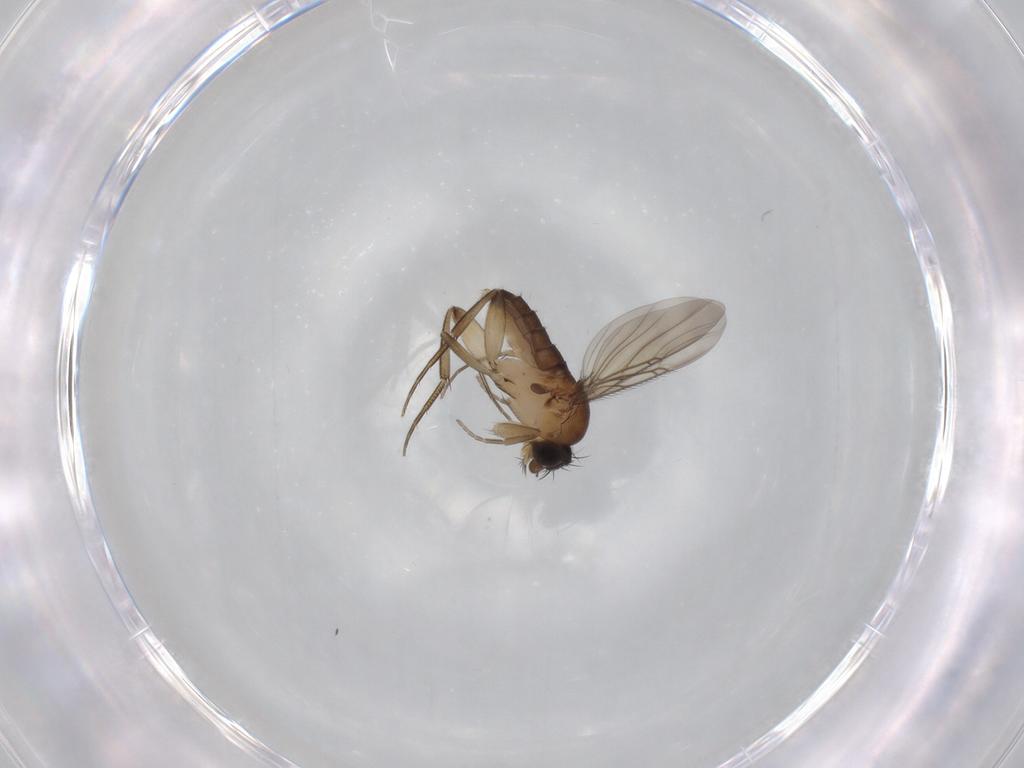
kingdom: Animalia
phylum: Arthropoda
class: Insecta
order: Diptera
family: Phoridae
